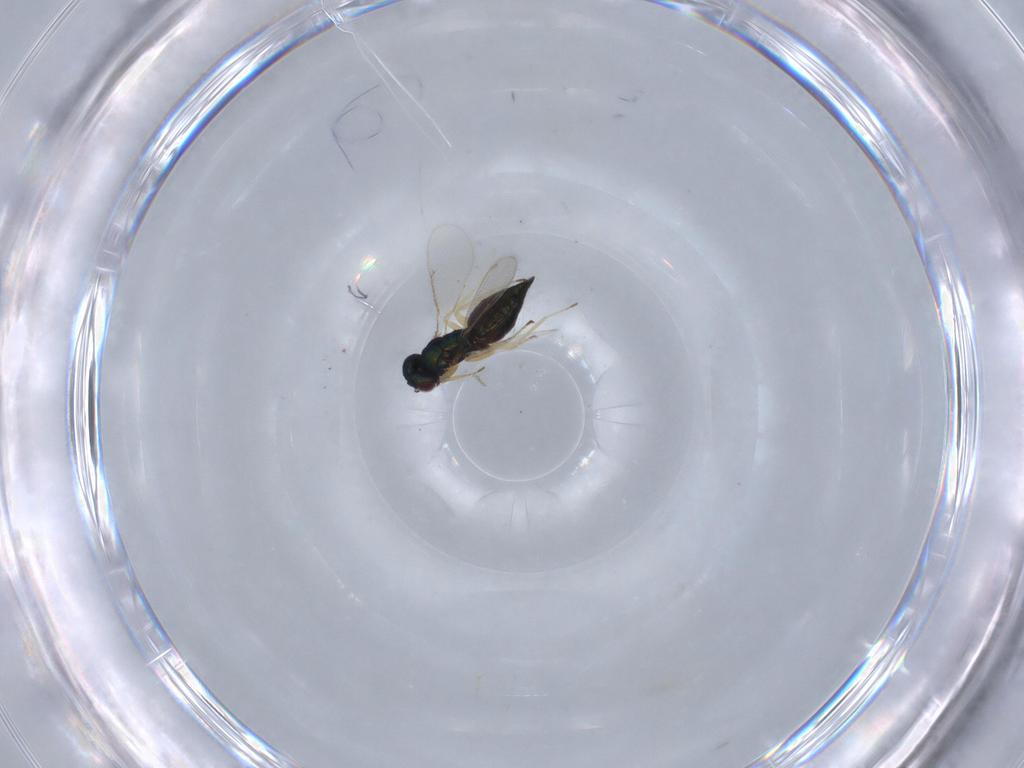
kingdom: Animalia
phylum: Arthropoda
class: Insecta
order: Hymenoptera
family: Eulophidae
